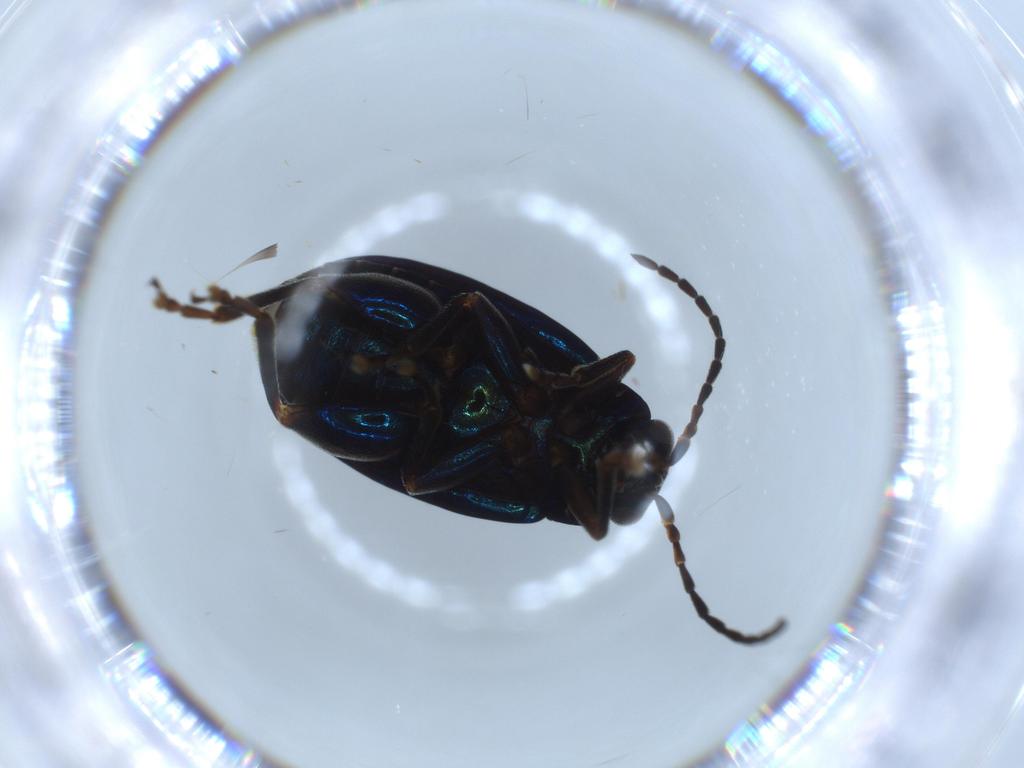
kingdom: Animalia
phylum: Arthropoda
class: Insecta
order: Coleoptera
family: Chrysomelidae
